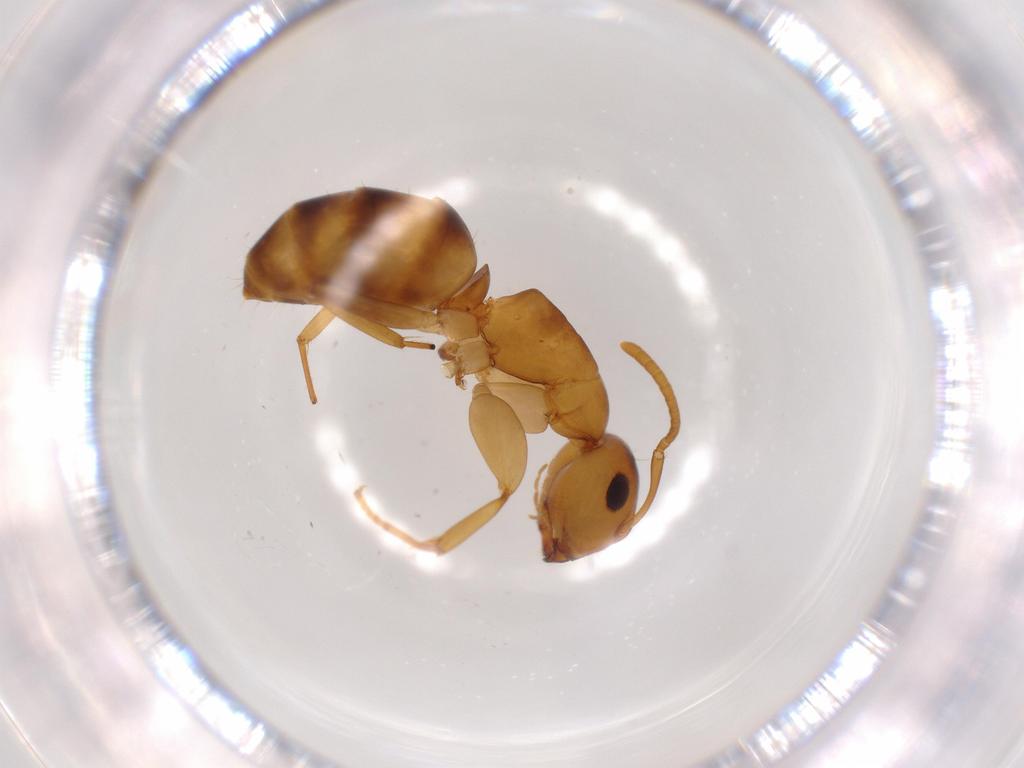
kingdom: Animalia
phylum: Arthropoda
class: Insecta
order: Hymenoptera
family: Formicidae
